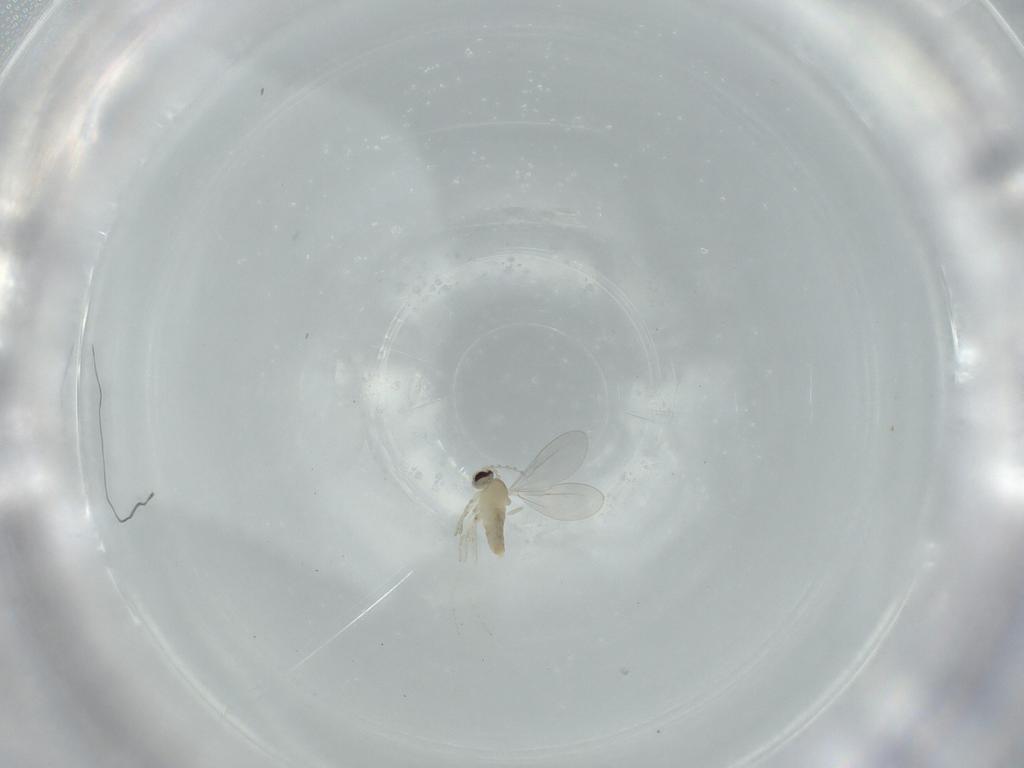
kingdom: Animalia
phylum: Arthropoda
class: Insecta
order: Diptera
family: Cecidomyiidae
